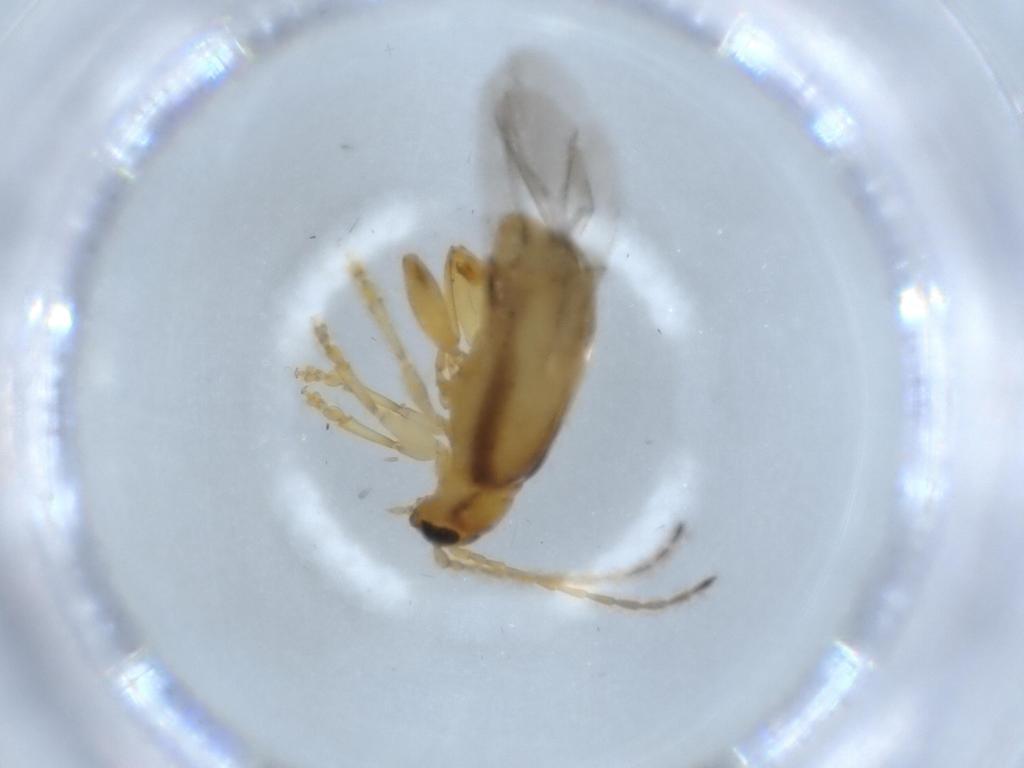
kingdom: Animalia
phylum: Arthropoda
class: Insecta
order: Coleoptera
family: Chrysomelidae
